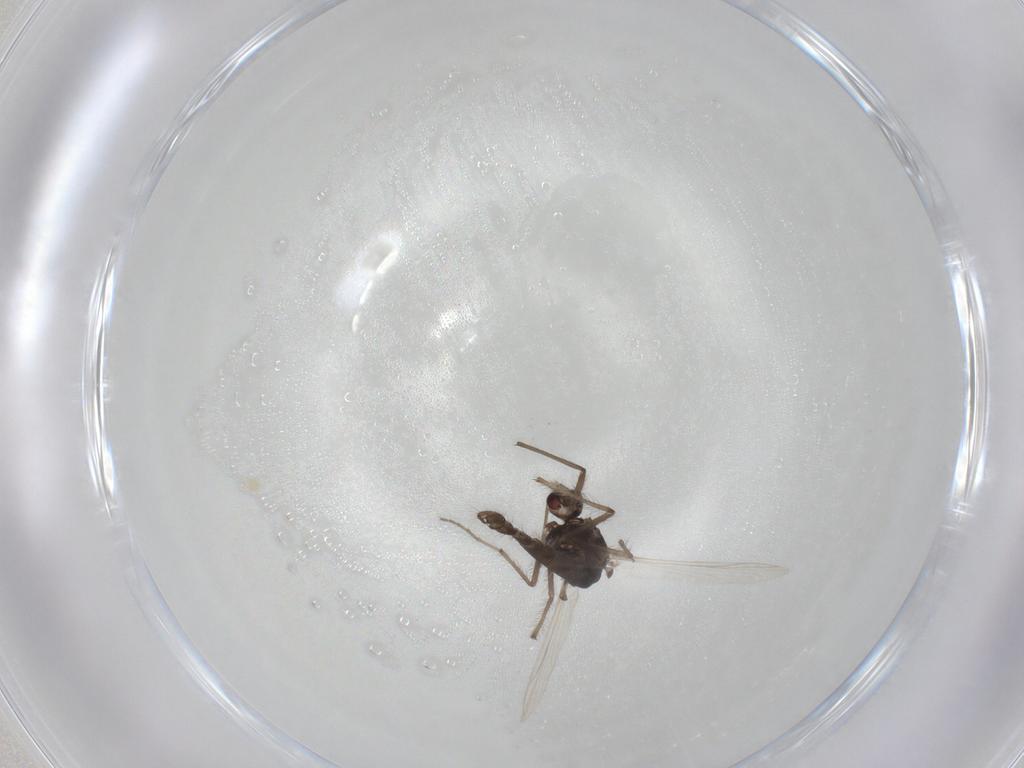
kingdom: Animalia
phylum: Arthropoda
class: Insecta
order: Diptera
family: Chironomidae
